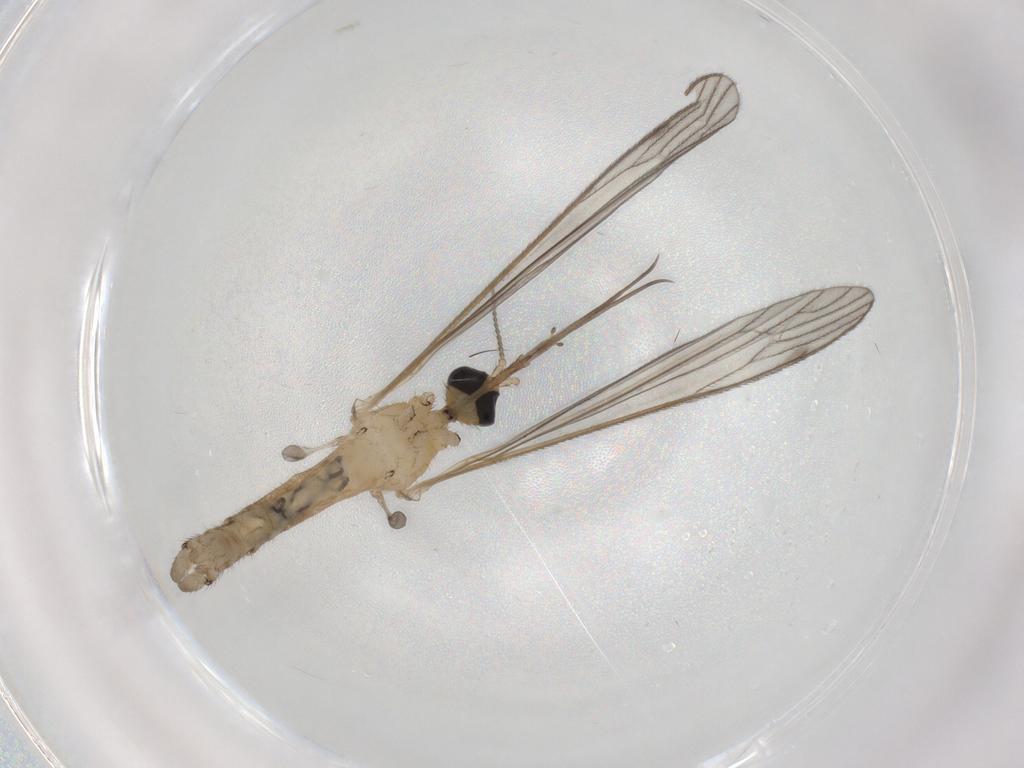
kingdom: Animalia
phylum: Arthropoda
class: Insecta
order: Diptera
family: Limoniidae
